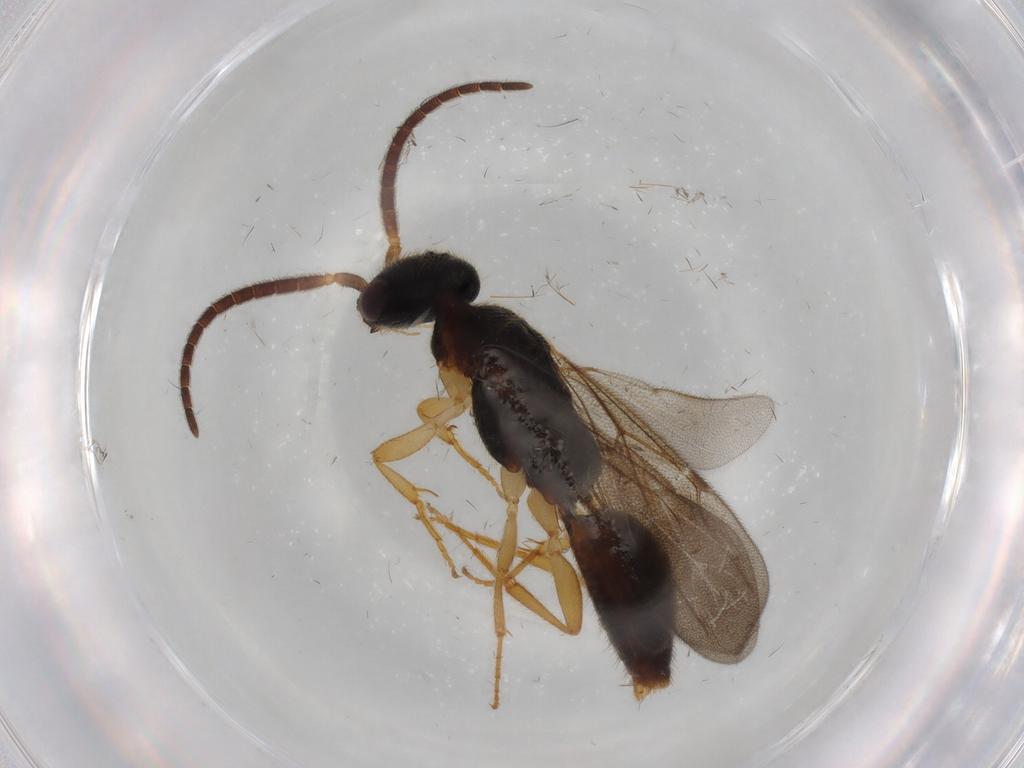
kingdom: Animalia
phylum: Arthropoda
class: Insecta
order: Hymenoptera
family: Bethylidae
